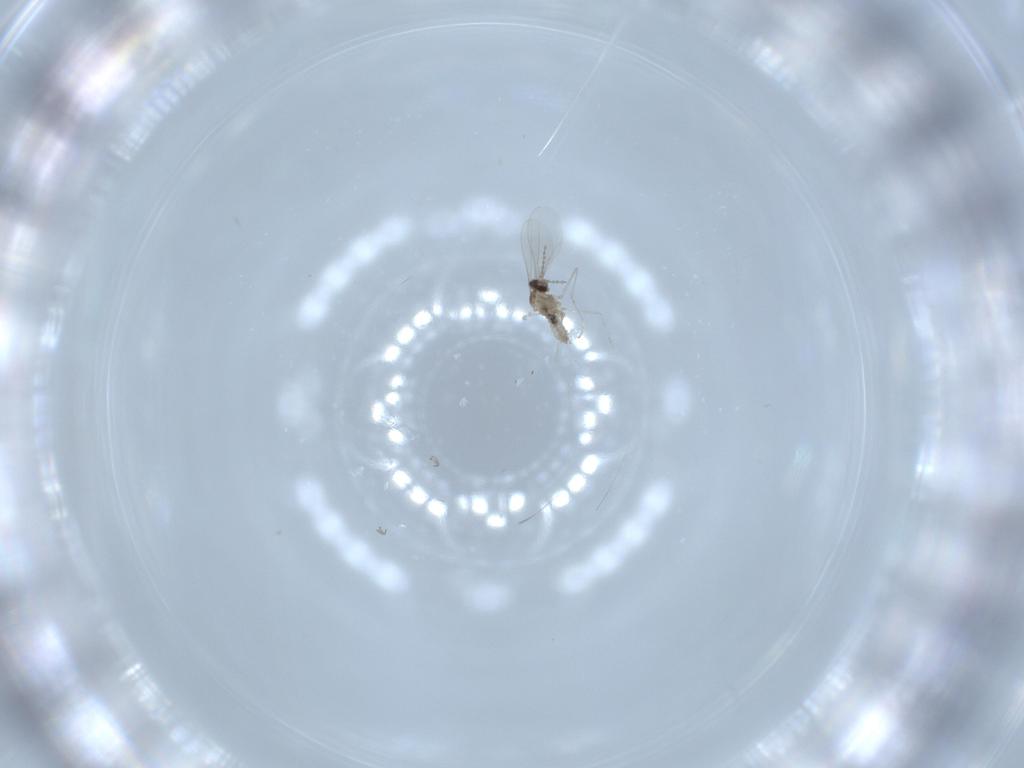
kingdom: Animalia
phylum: Arthropoda
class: Insecta
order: Diptera
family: Cecidomyiidae
